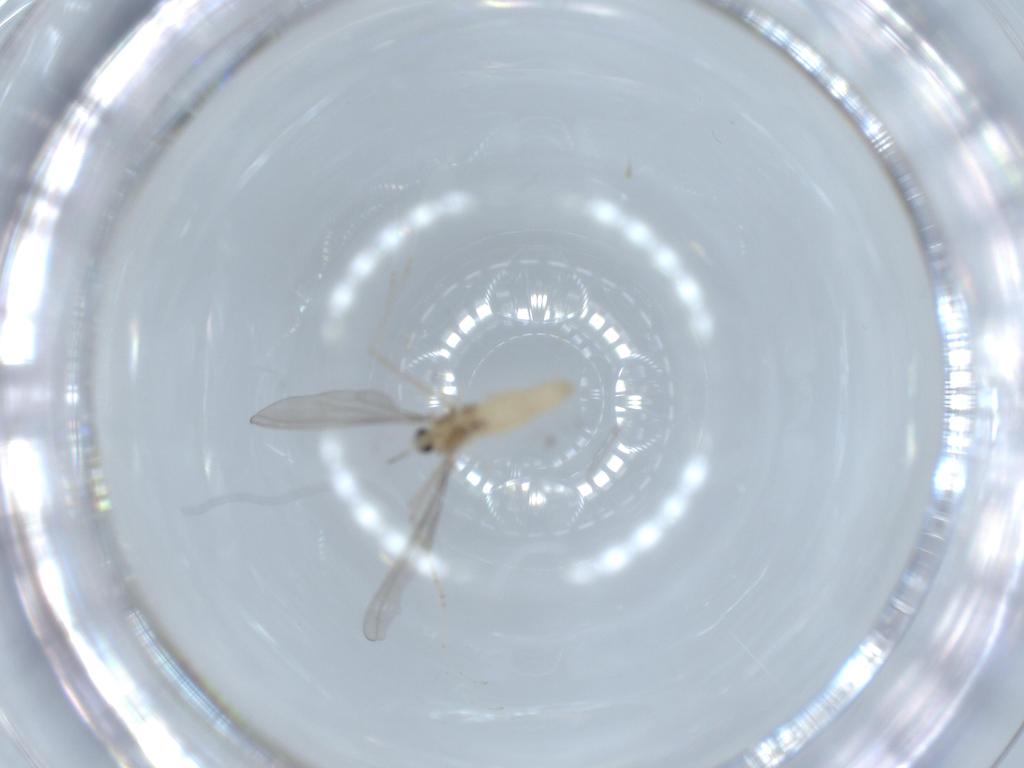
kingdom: Animalia
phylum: Arthropoda
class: Insecta
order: Diptera
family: Cecidomyiidae
